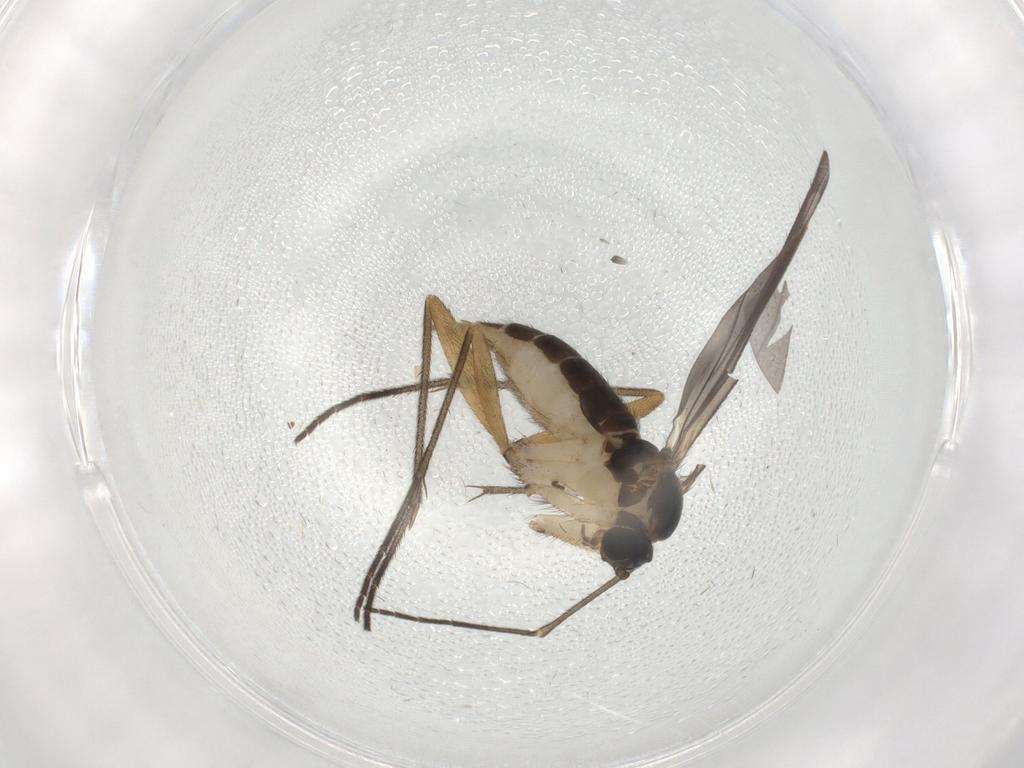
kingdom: Animalia
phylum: Arthropoda
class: Insecta
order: Diptera
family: Sciaridae
